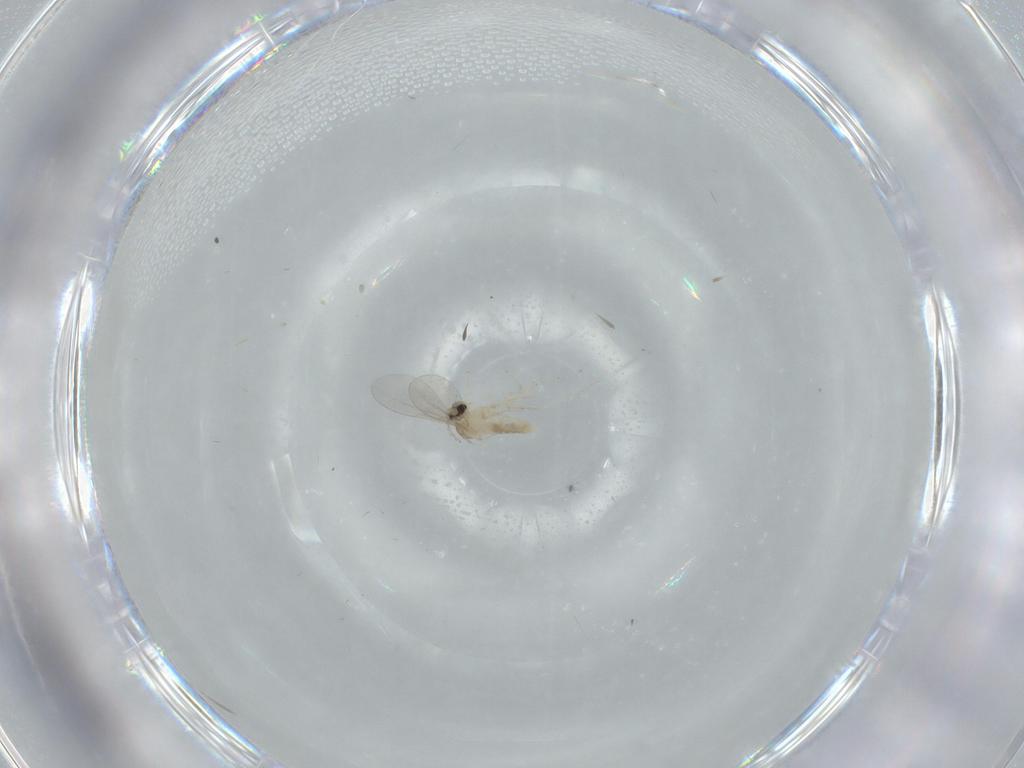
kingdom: Animalia
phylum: Arthropoda
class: Insecta
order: Diptera
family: Cecidomyiidae
